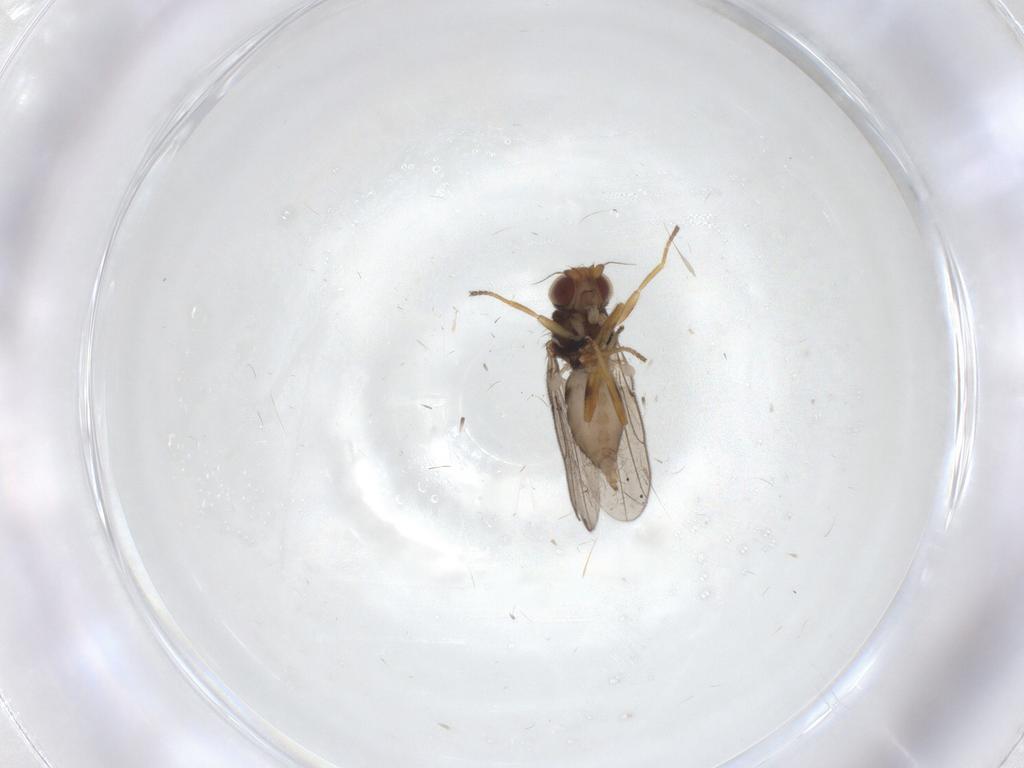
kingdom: Animalia
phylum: Arthropoda
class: Insecta
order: Diptera
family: Chloropidae
